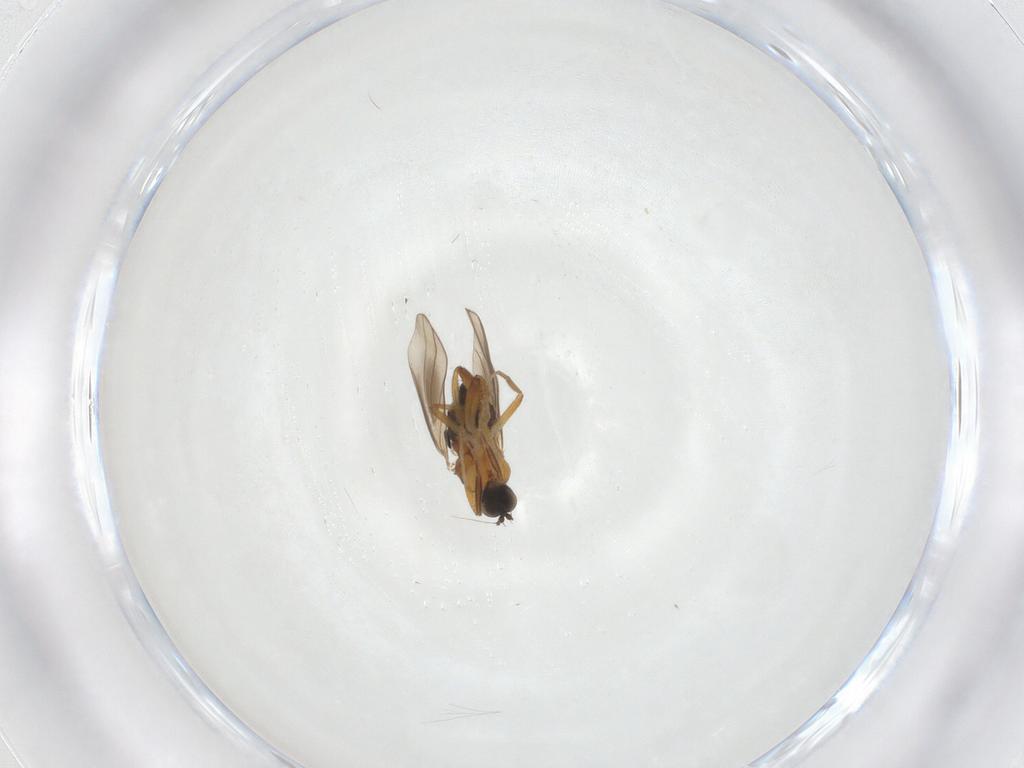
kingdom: Animalia
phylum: Arthropoda
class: Insecta
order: Diptera
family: Hybotidae
